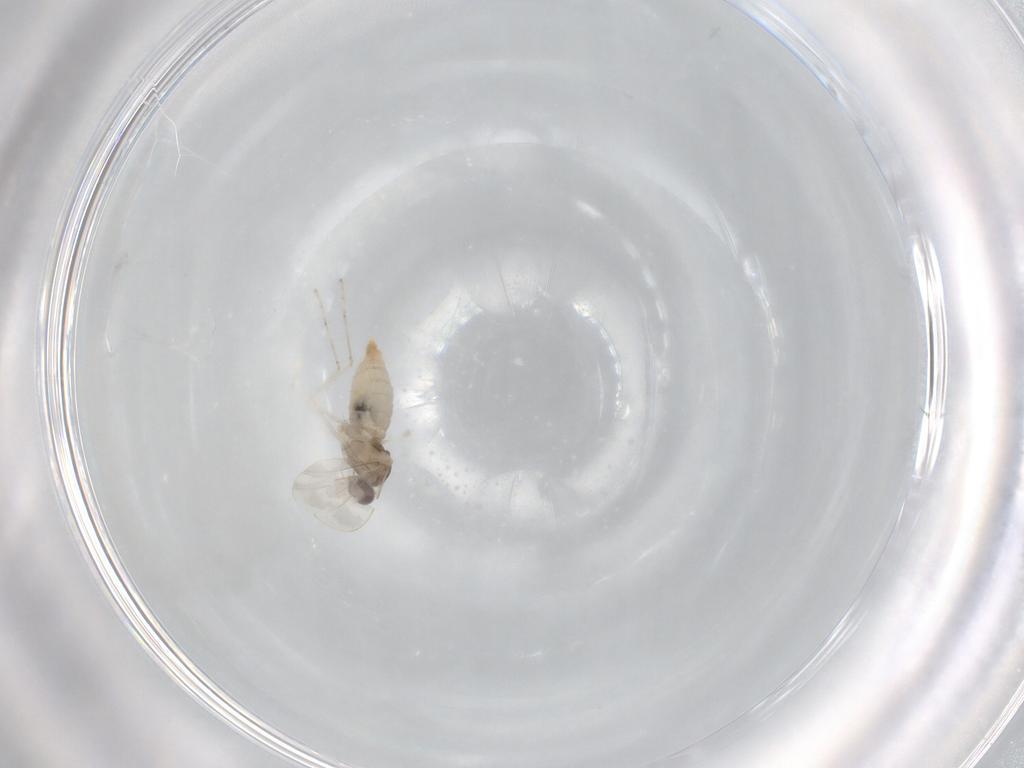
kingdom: Animalia
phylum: Arthropoda
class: Insecta
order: Diptera
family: Cecidomyiidae
